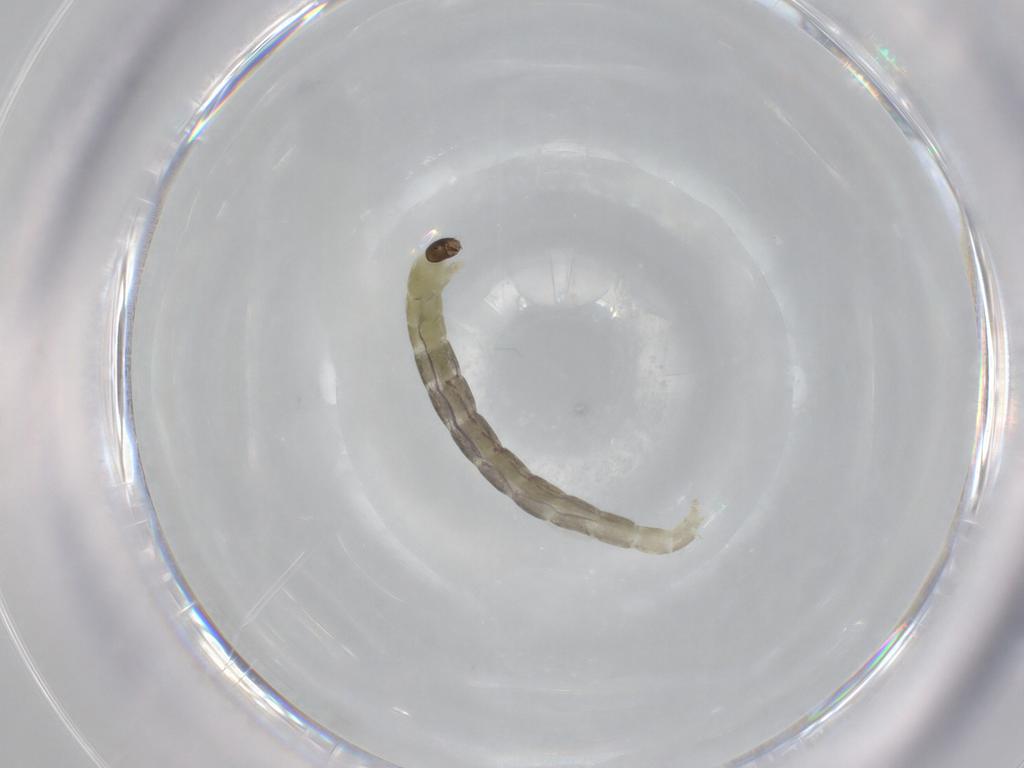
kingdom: Animalia
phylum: Arthropoda
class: Insecta
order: Diptera
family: Chironomidae
